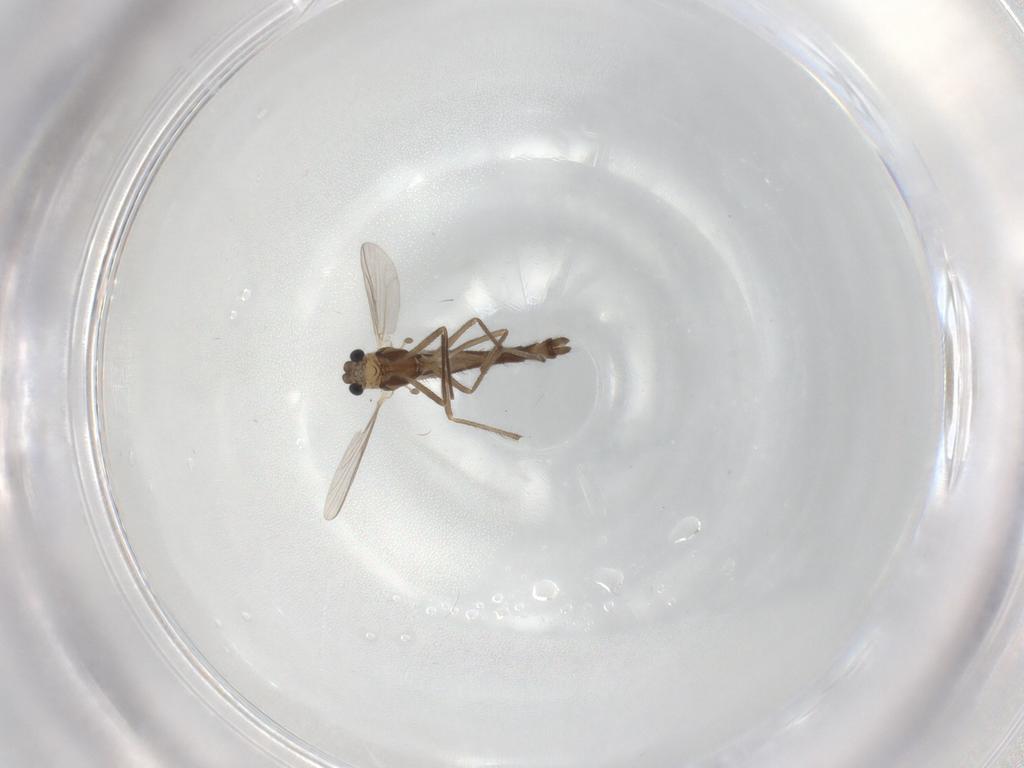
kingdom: Animalia
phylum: Arthropoda
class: Insecta
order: Diptera
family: Chironomidae
